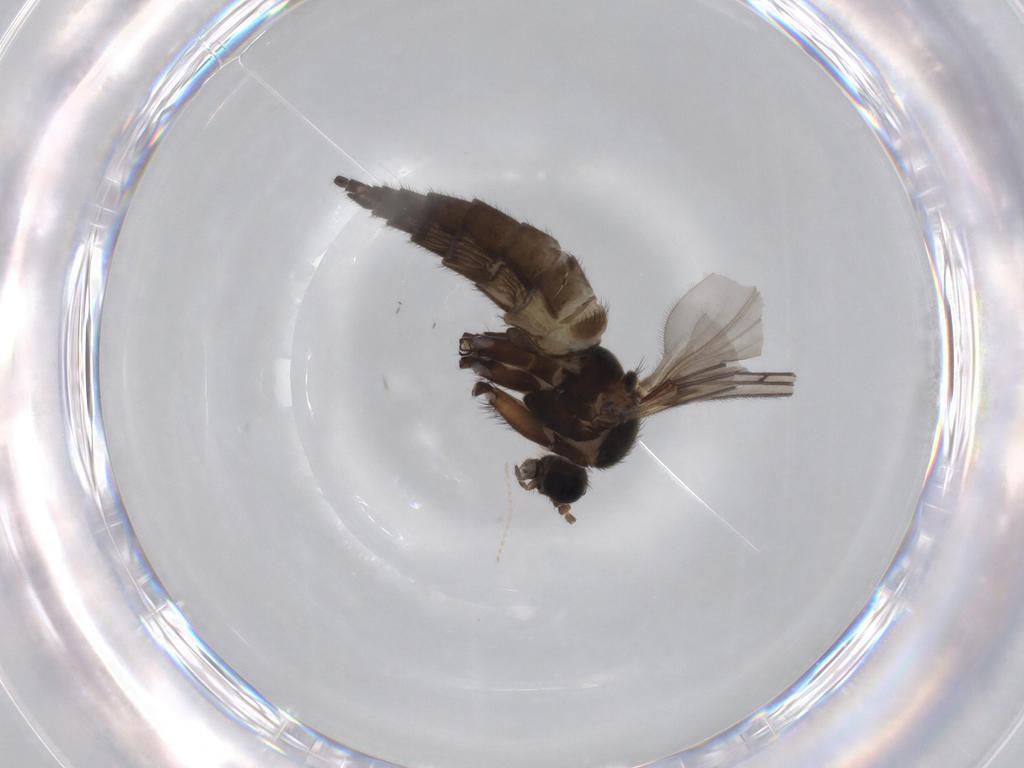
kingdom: Animalia
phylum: Arthropoda
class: Insecta
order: Diptera
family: Sciaridae
